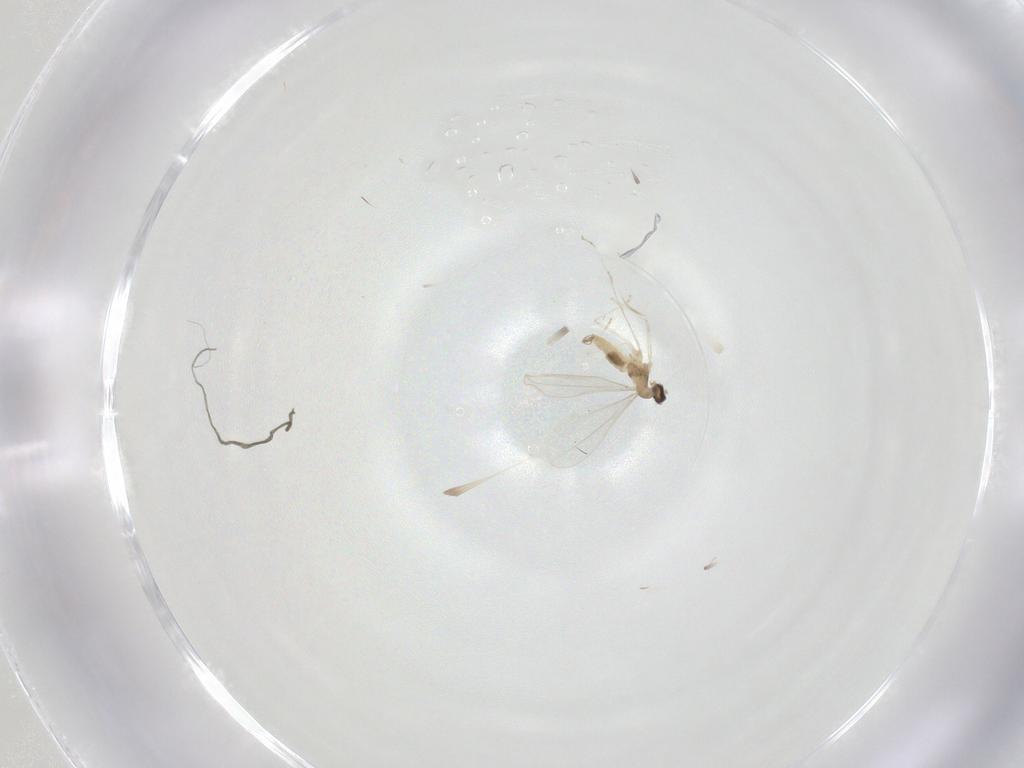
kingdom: Animalia
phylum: Arthropoda
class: Insecta
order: Diptera
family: Cecidomyiidae
